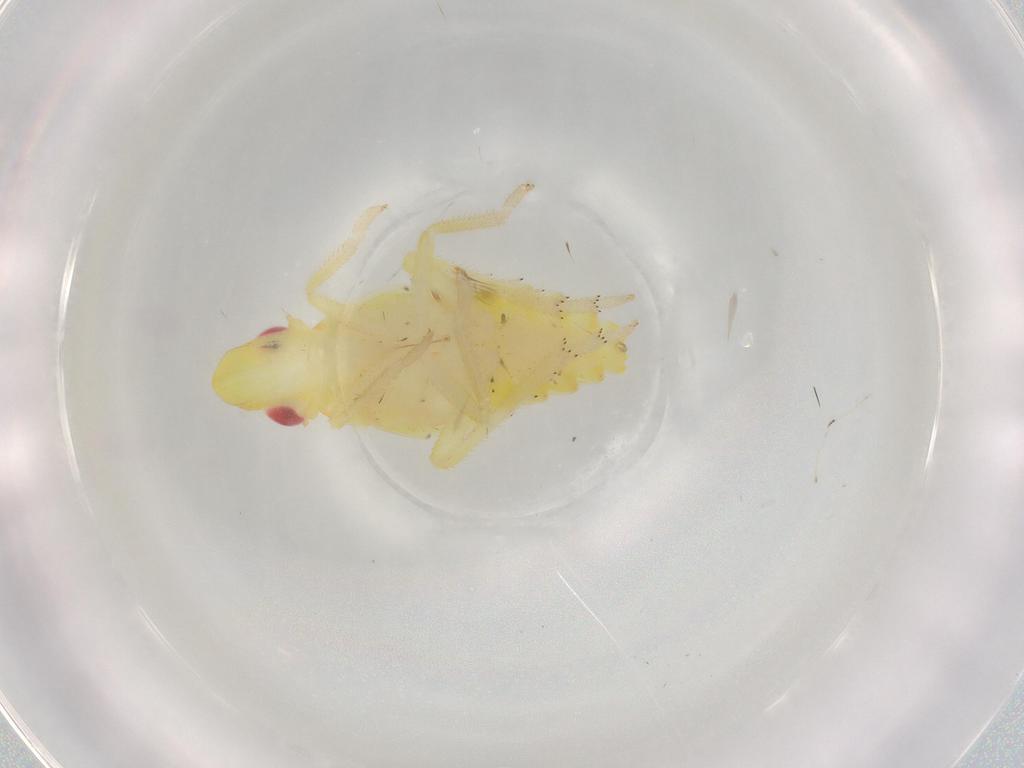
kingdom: Animalia
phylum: Arthropoda
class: Insecta
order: Hemiptera
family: Tropiduchidae
